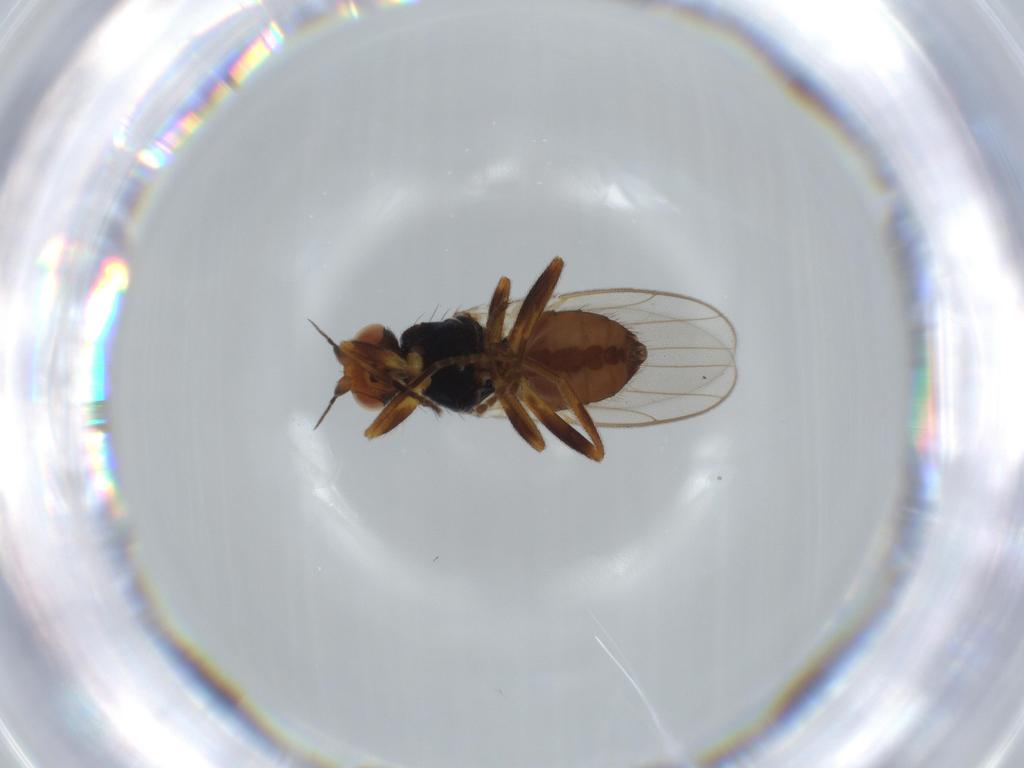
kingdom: Animalia
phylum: Arthropoda
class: Insecta
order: Diptera
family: Chloropidae
